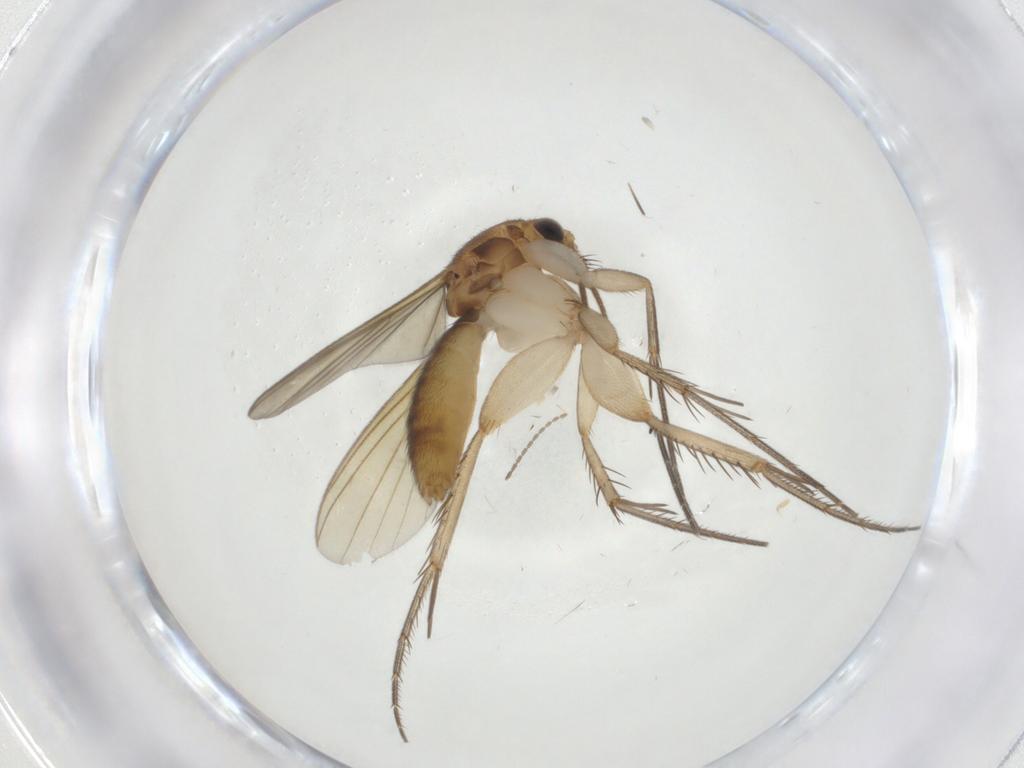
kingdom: Animalia
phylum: Arthropoda
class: Insecta
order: Diptera
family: Mycetophilidae
